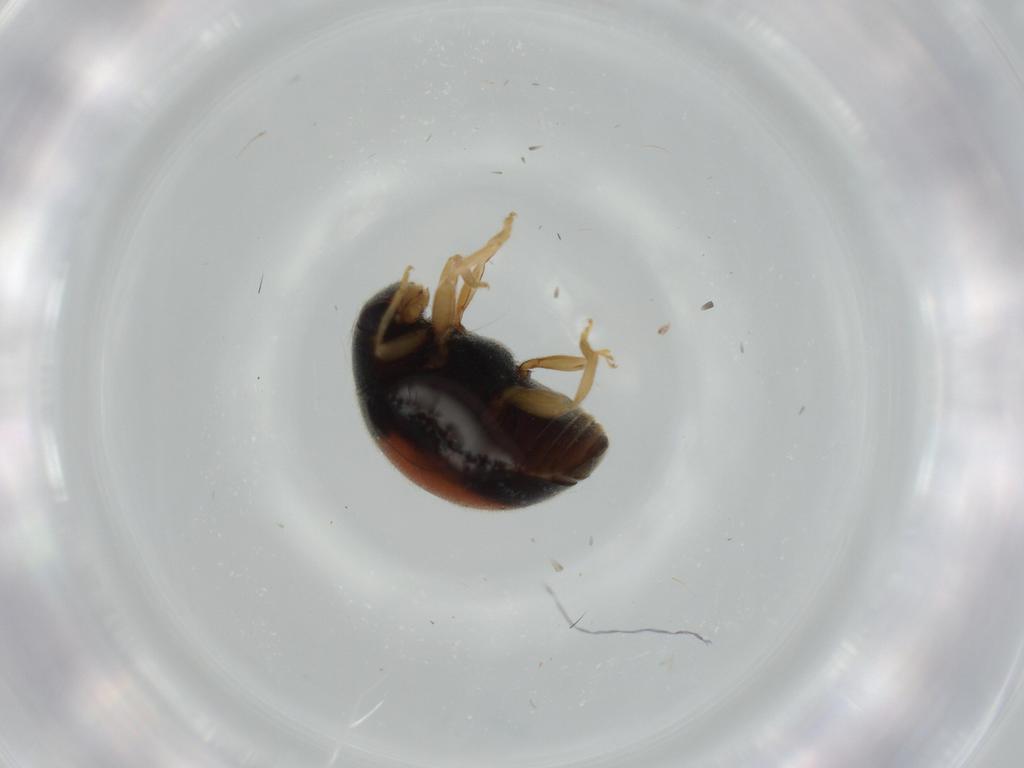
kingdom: Animalia
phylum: Arthropoda
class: Insecta
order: Coleoptera
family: Coccinellidae
